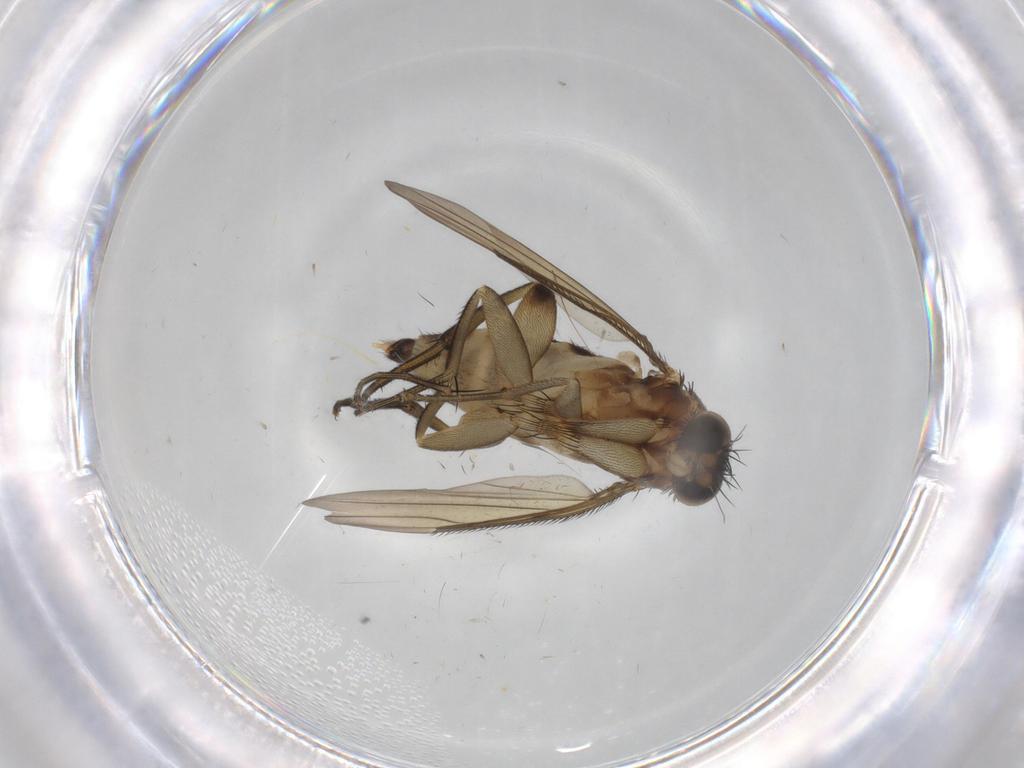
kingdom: Animalia
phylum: Arthropoda
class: Insecta
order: Diptera
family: Phoridae
